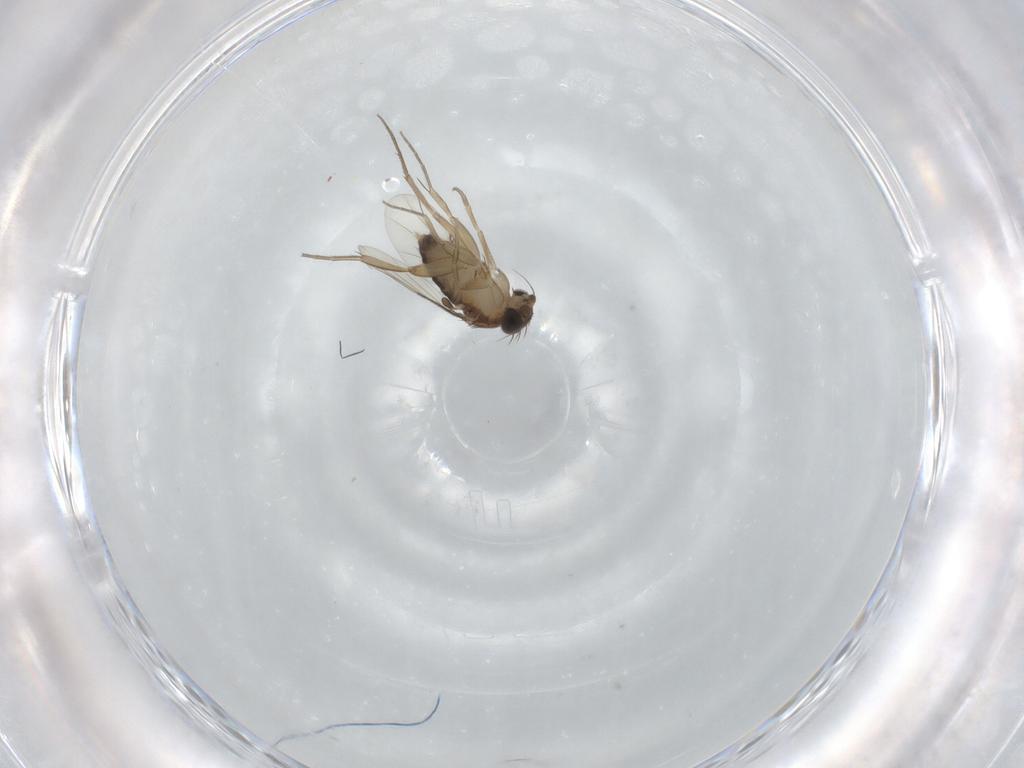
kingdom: Animalia
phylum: Arthropoda
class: Insecta
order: Diptera
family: Phoridae
